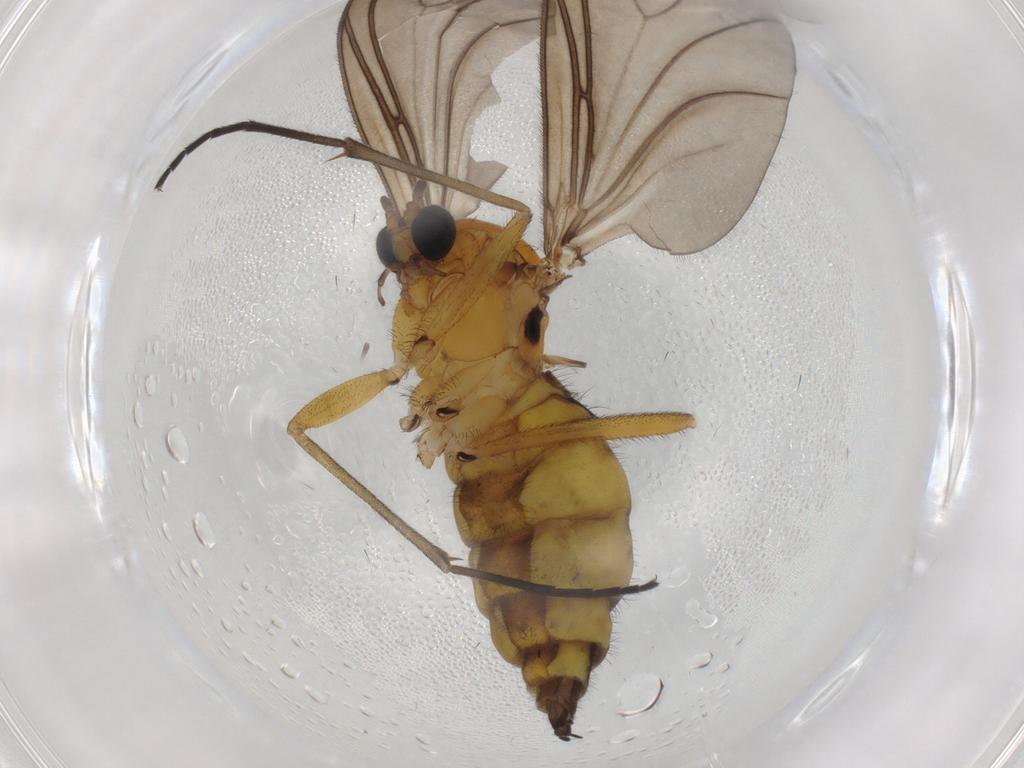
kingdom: Animalia
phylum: Arthropoda
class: Insecta
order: Diptera
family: Sciaridae
